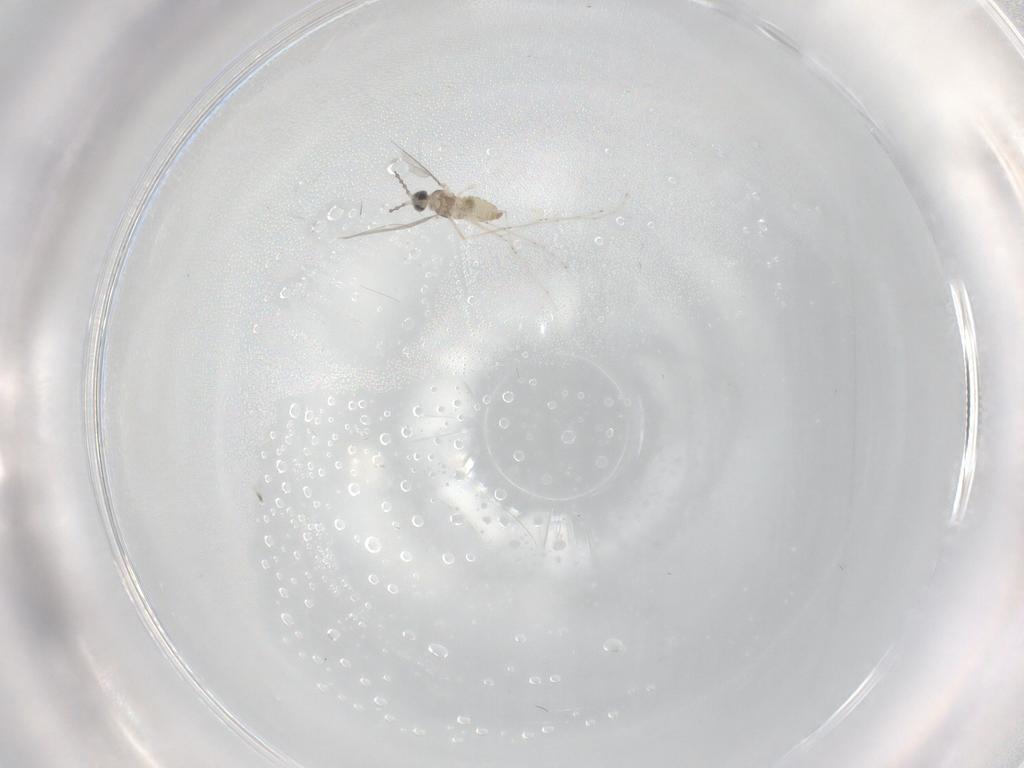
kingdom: Animalia
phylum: Arthropoda
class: Insecta
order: Diptera
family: Cecidomyiidae
